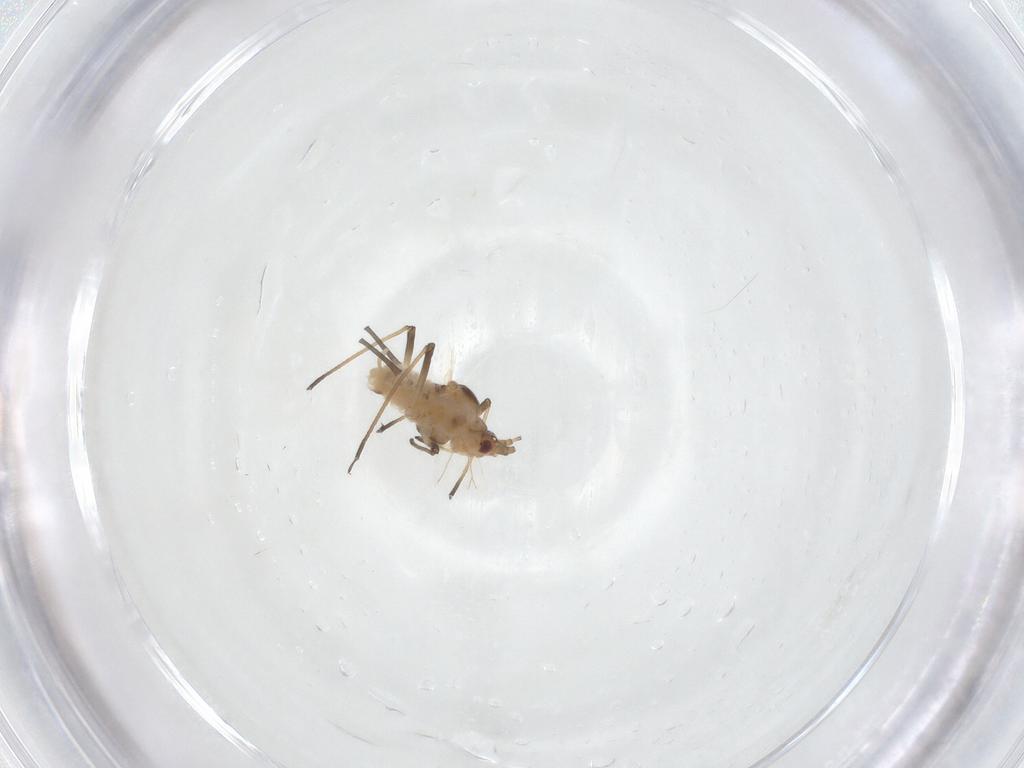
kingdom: Animalia
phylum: Arthropoda
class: Insecta
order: Hemiptera
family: Aphididae
